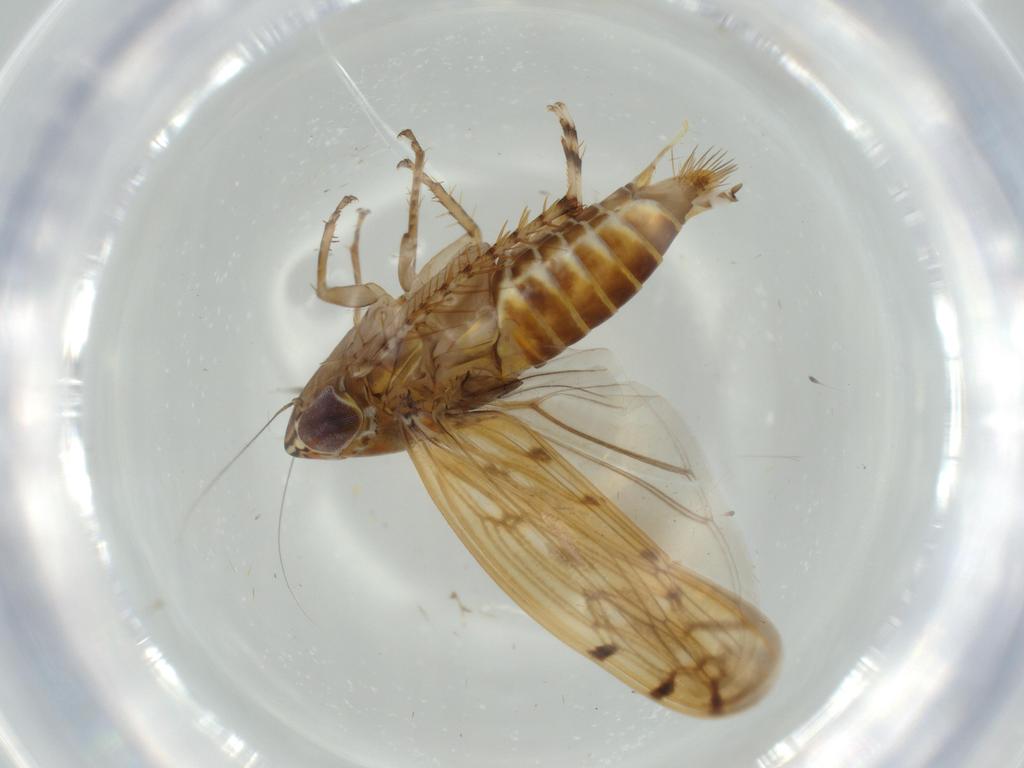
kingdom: Animalia
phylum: Arthropoda
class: Insecta
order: Hemiptera
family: Cicadellidae
